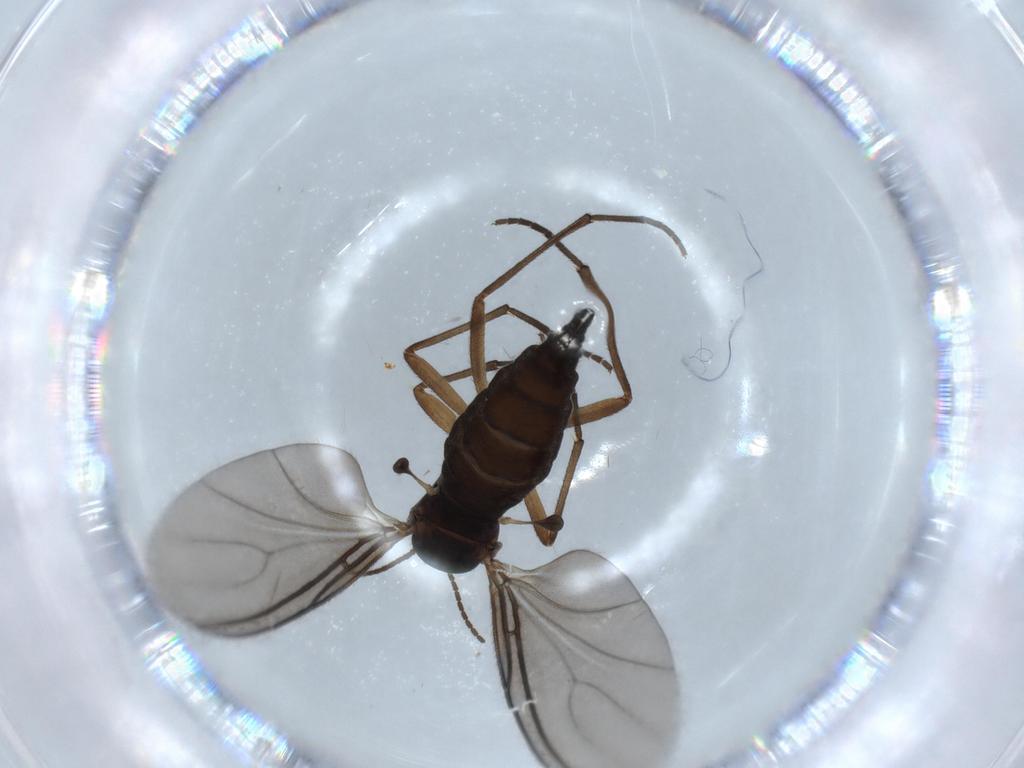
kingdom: Animalia
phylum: Arthropoda
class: Insecta
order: Diptera
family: Sciaridae
